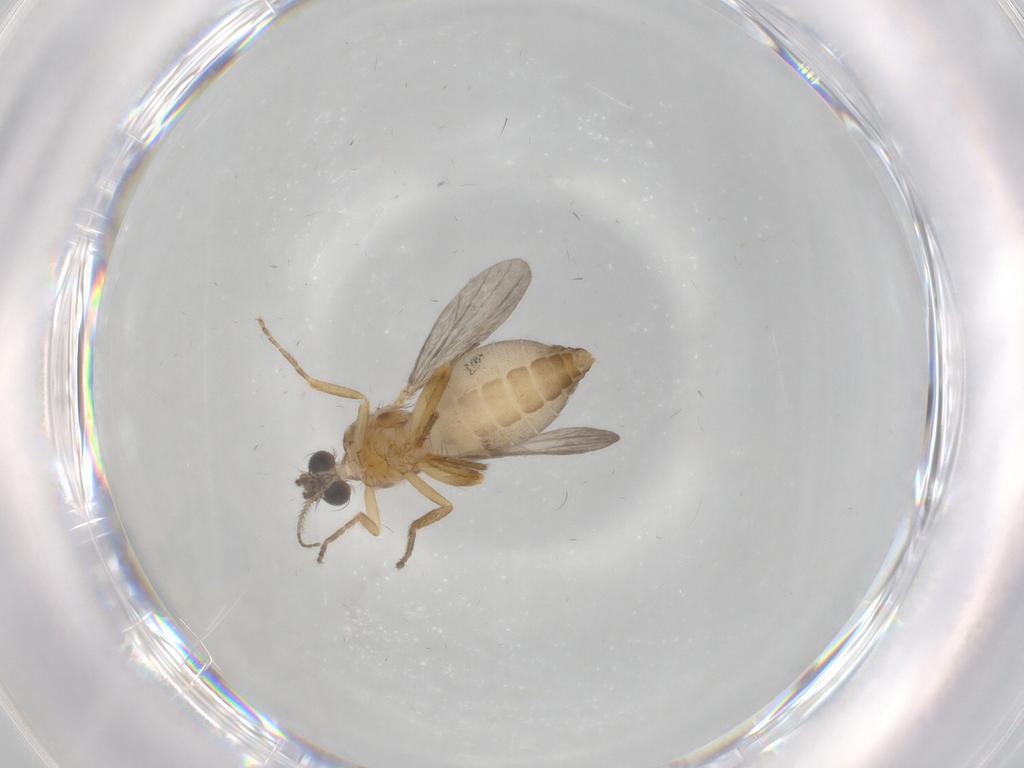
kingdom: Animalia
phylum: Arthropoda
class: Insecta
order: Diptera
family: Ceratopogonidae
